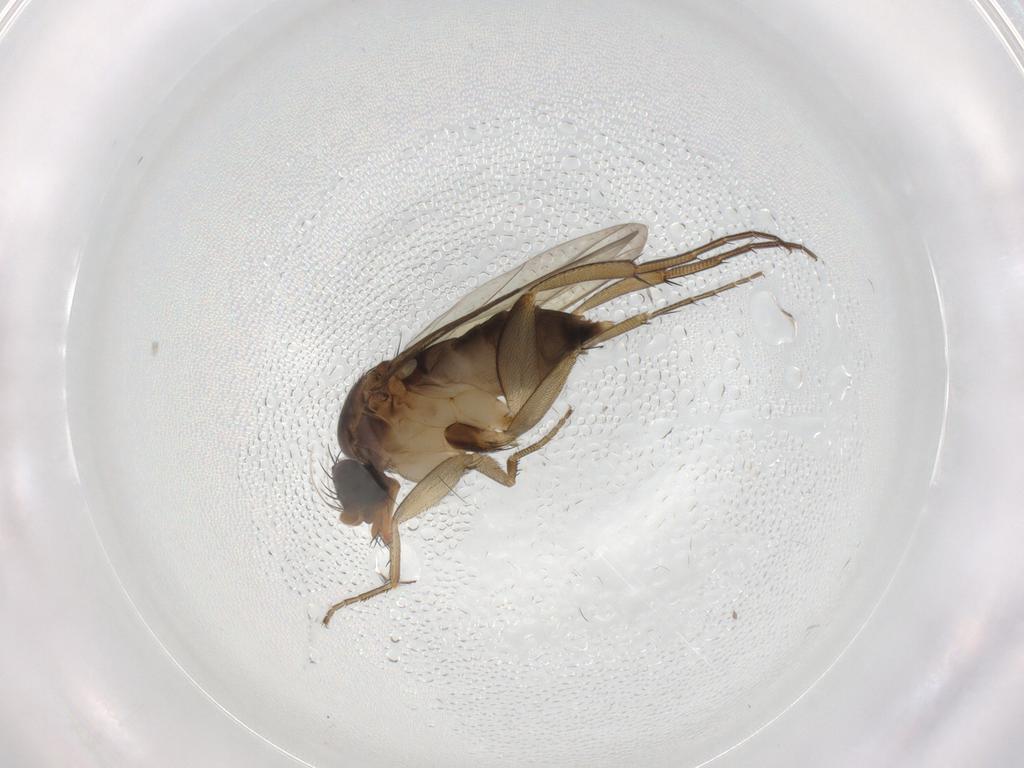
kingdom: Animalia
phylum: Arthropoda
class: Insecta
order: Diptera
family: Phoridae
